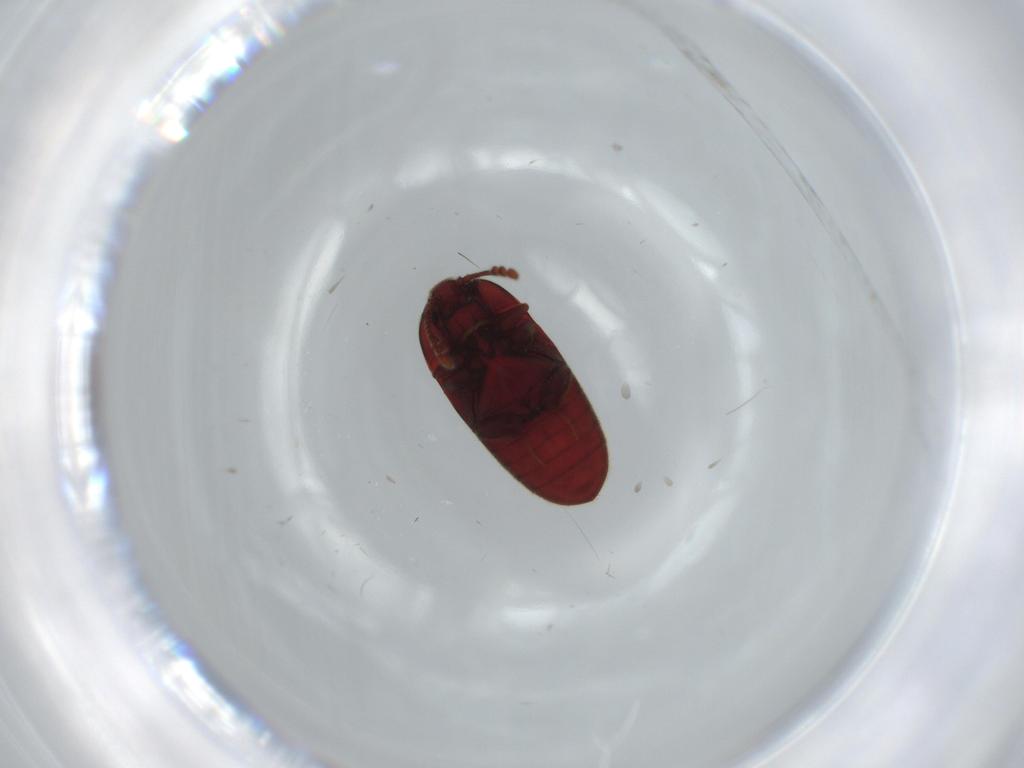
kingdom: Animalia
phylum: Arthropoda
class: Insecta
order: Coleoptera
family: Throscidae
